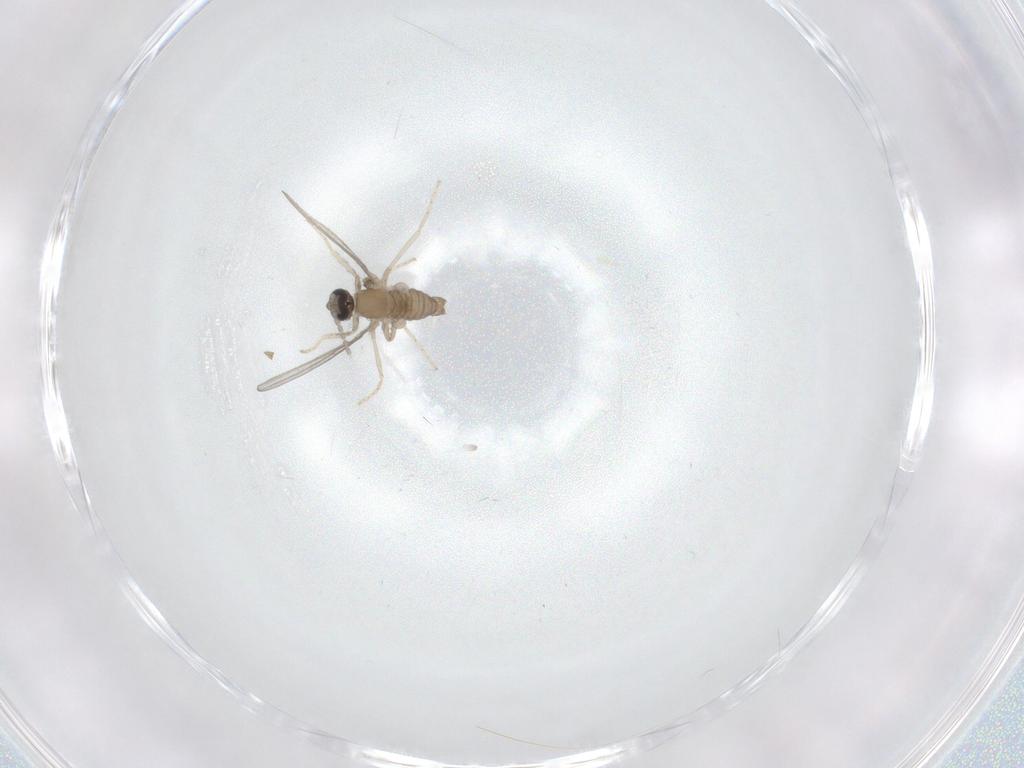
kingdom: Animalia
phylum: Arthropoda
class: Insecta
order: Diptera
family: Cecidomyiidae
